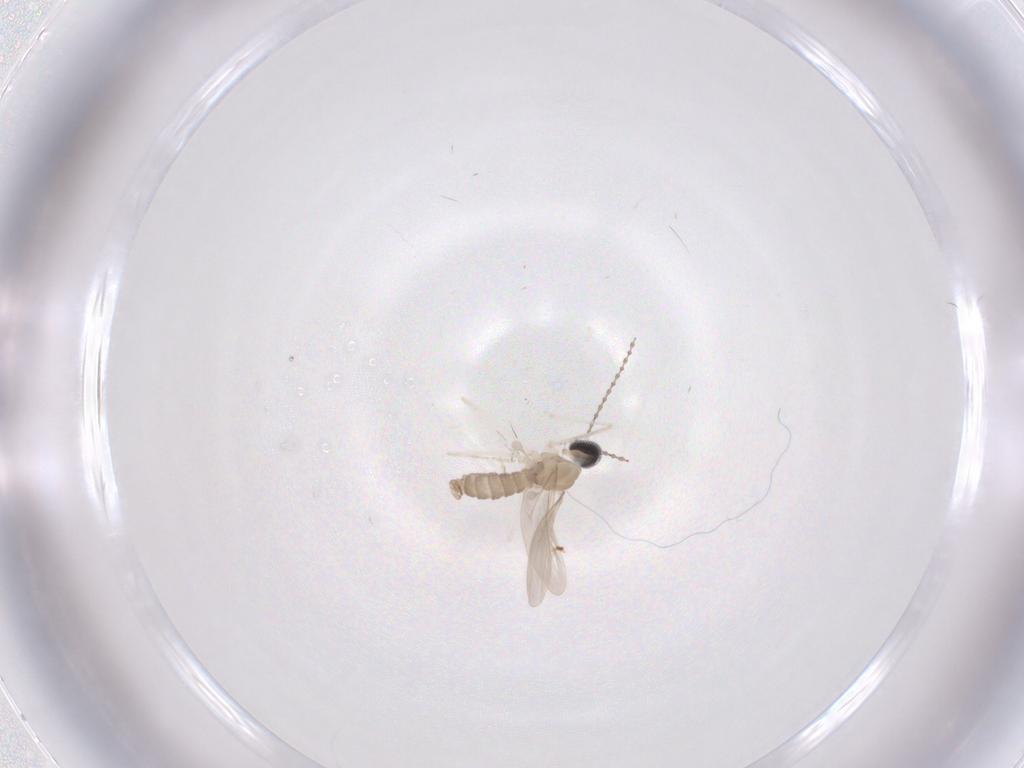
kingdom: Animalia
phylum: Arthropoda
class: Insecta
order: Diptera
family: Cecidomyiidae
